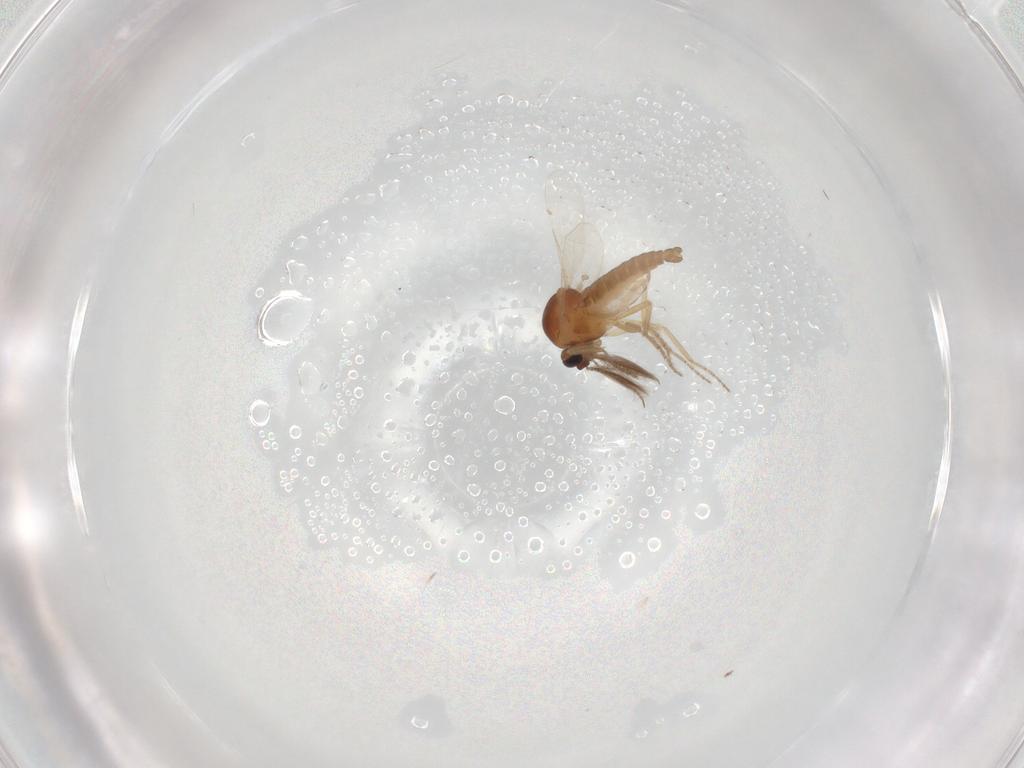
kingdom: Animalia
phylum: Arthropoda
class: Insecta
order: Diptera
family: Ceratopogonidae
